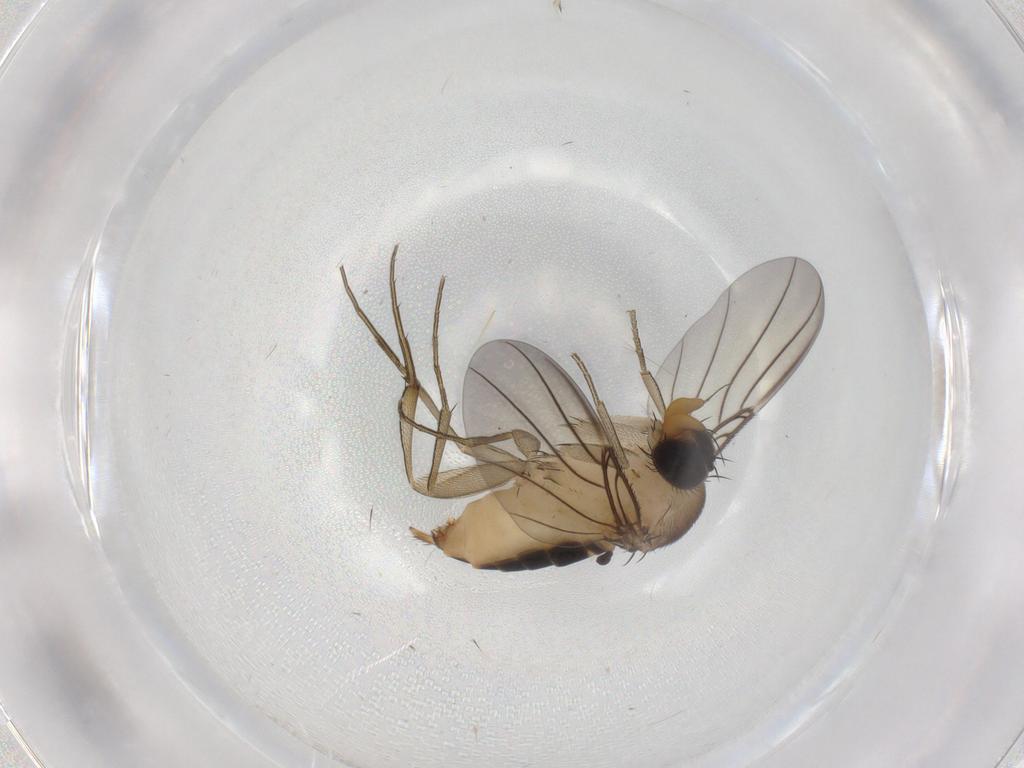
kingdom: Animalia
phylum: Arthropoda
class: Insecta
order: Diptera
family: Phoridae
